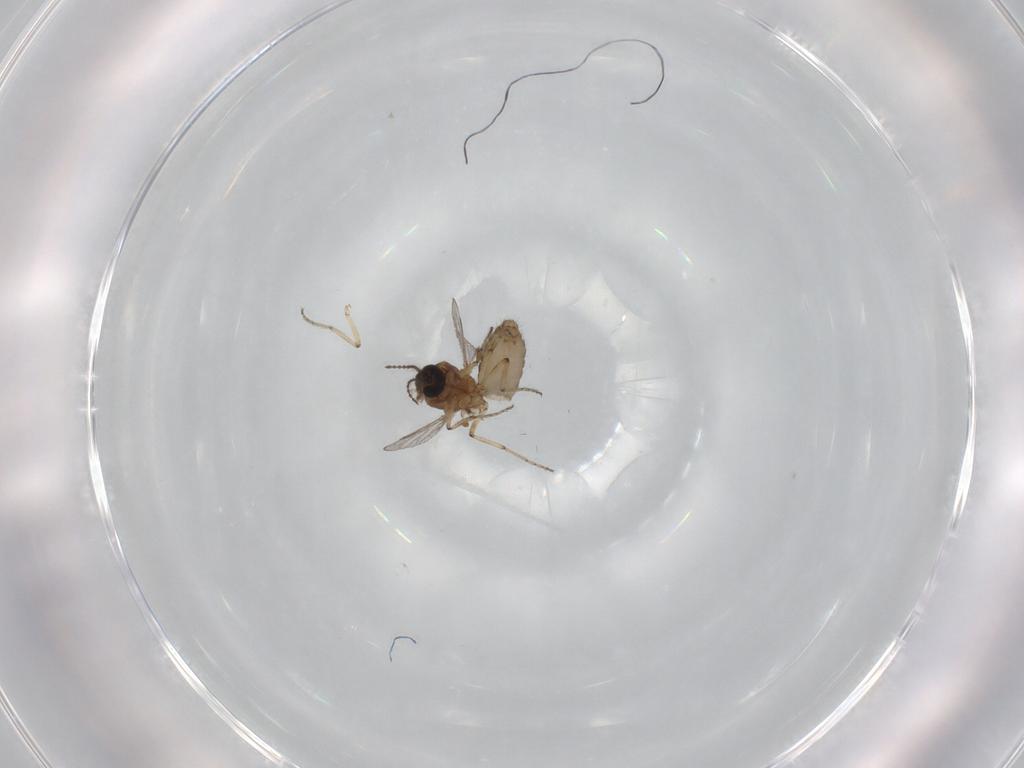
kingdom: Animalia
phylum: Arthropoda
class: Insecta
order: Diptera
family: Ceratopogonidae
